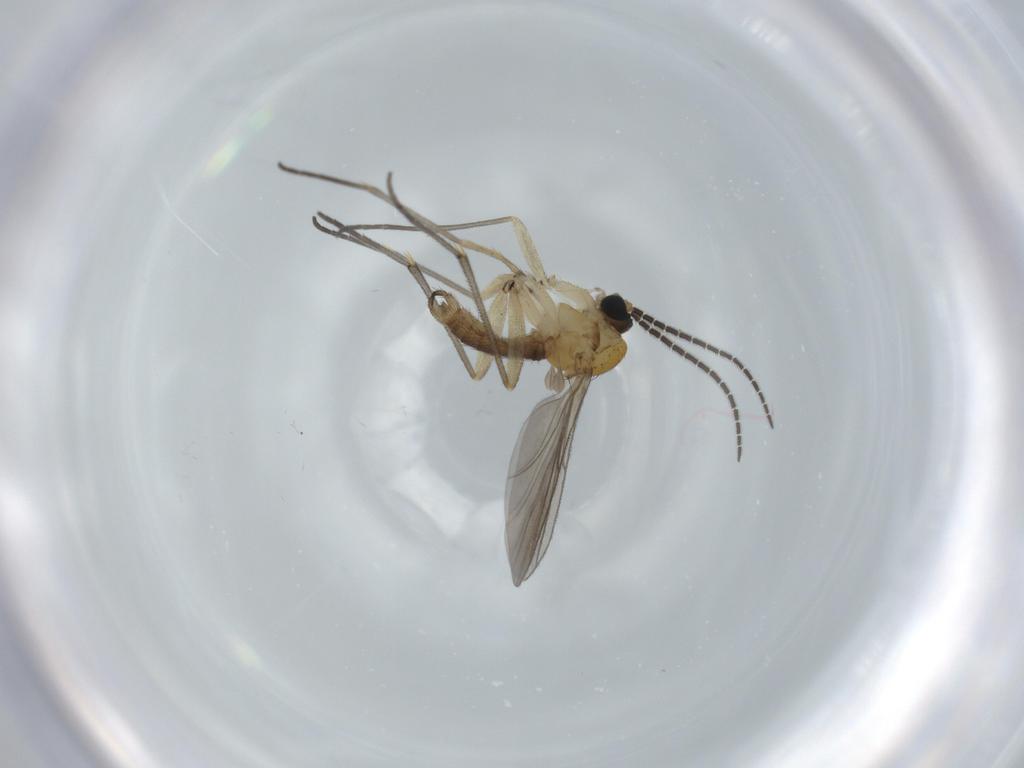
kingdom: Animalia
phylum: Arthropoda
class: Insecta
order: Diptera
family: Sciaridae
